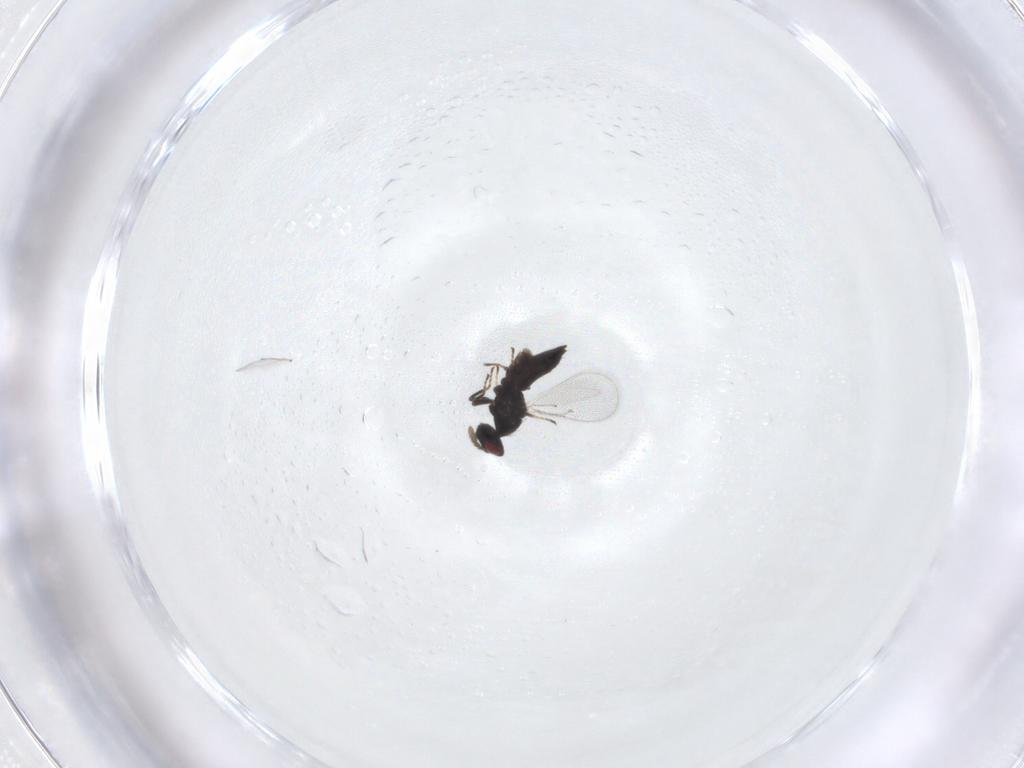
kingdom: Animalia
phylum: Arthropoda
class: Insecta
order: Hymenoptera
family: Eulophidae
